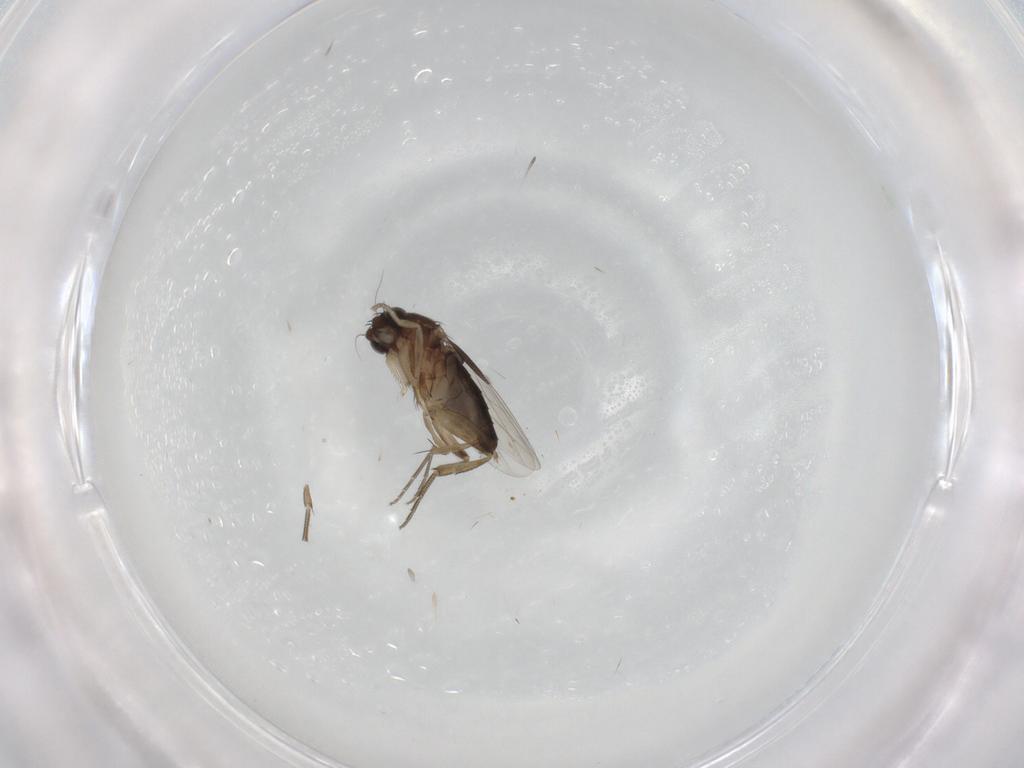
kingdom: Animalia
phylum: Arthropoda
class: Insecta
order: Diptera
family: Phoridae
